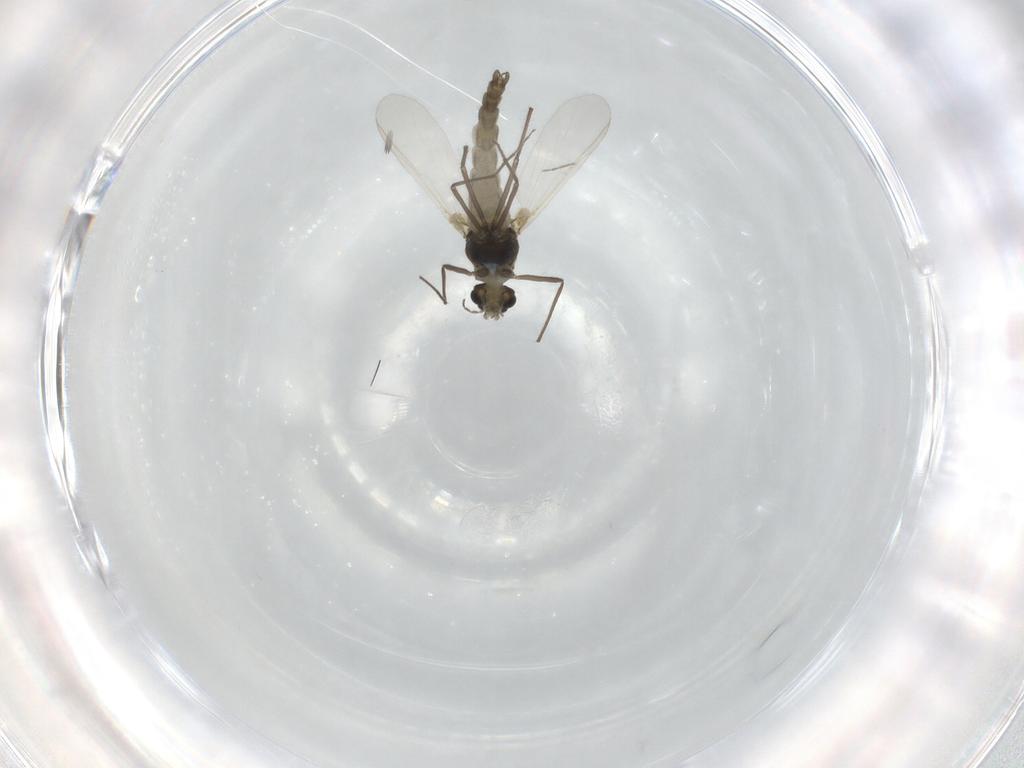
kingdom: Animalia
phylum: Arthropoda
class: Insecta
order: Diptera
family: Chironomidae
